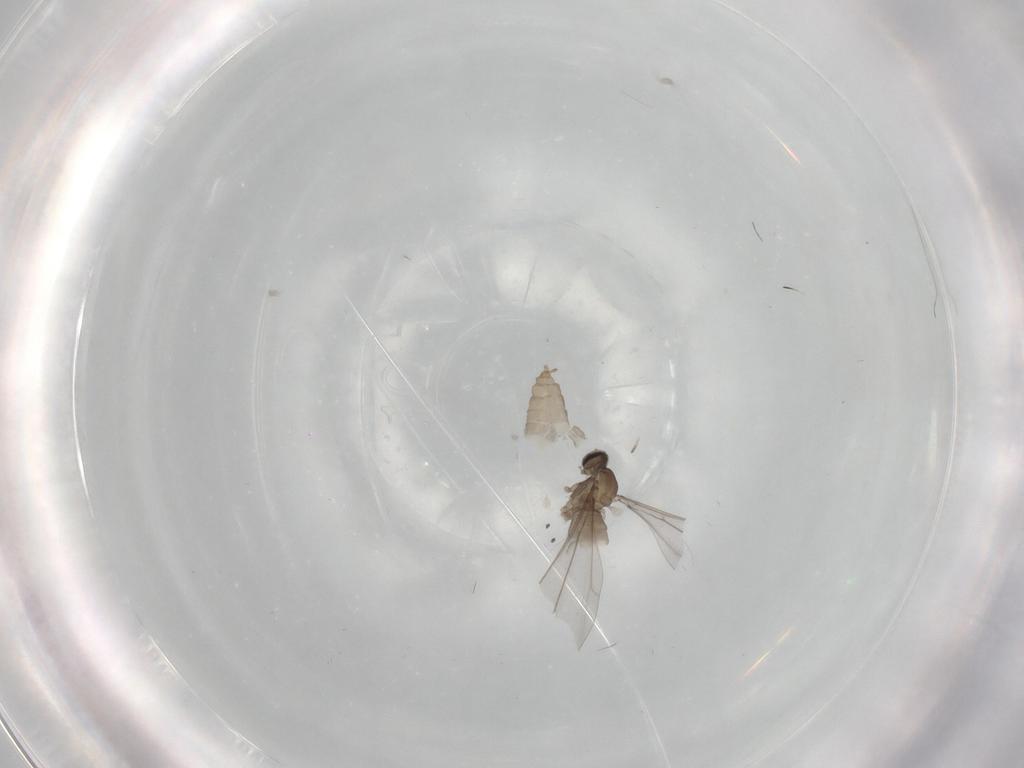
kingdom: Animalia
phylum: Arthropoda
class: Insecta
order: Diptera
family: Cecidomyiidae
